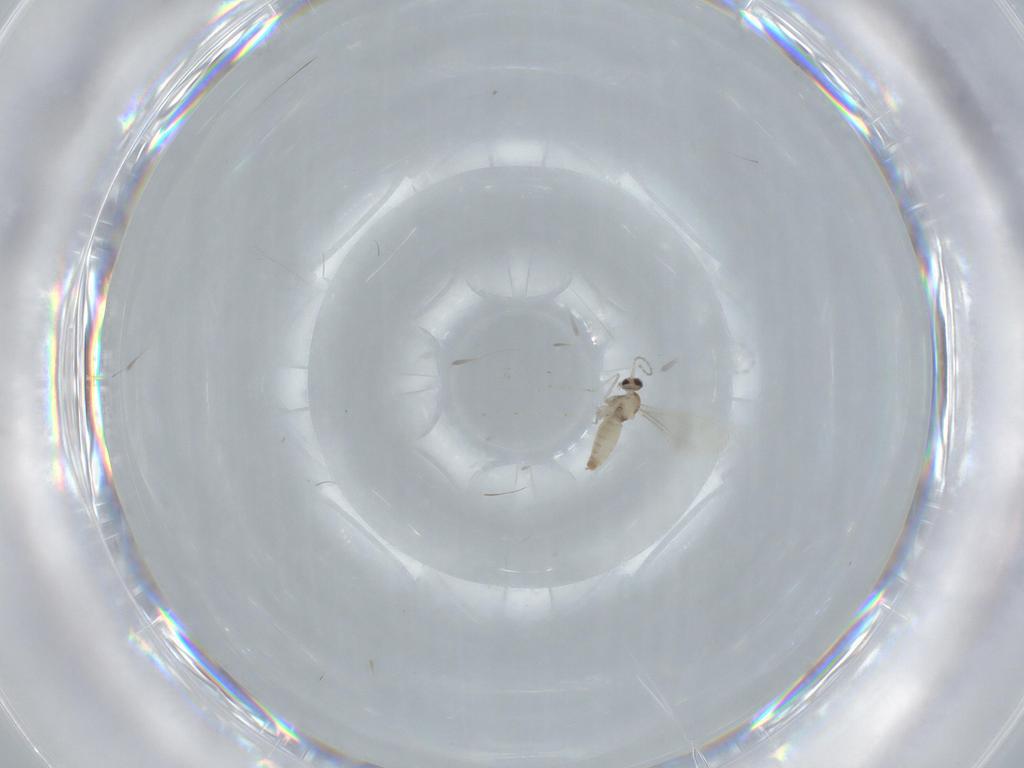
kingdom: Animalia
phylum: Arthropoda
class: Insecta
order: Diptera
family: Cecidomyiidae
